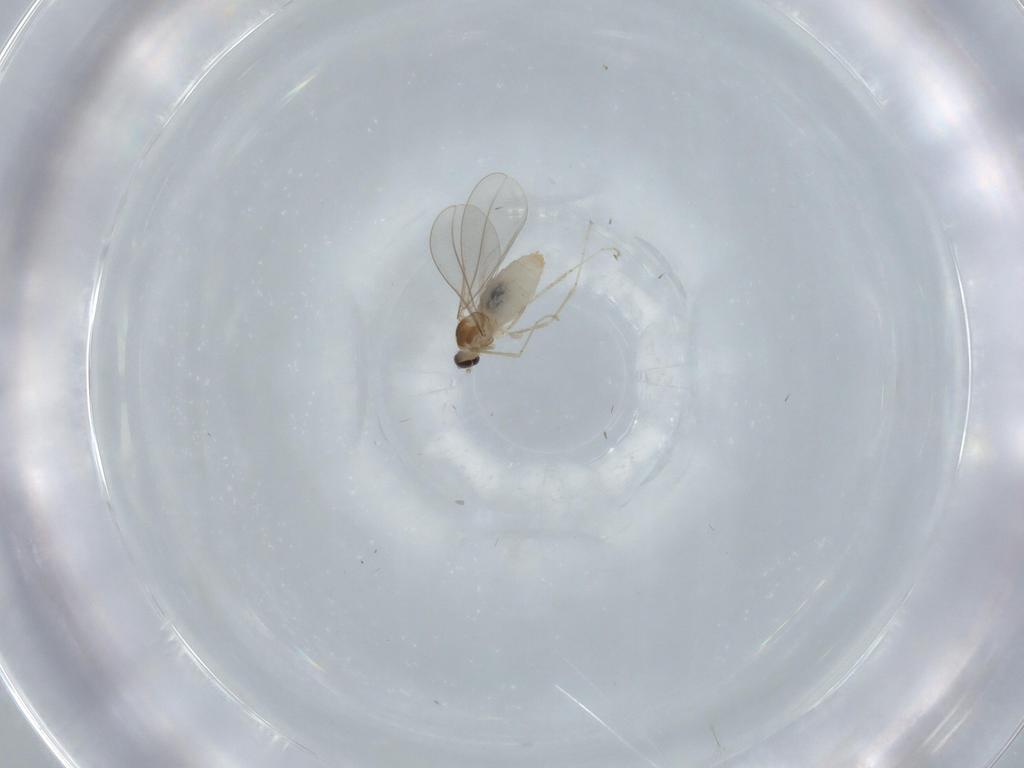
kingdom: Animalia
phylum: Arthropoda
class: Insecta
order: Diptera
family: Cecidomyiidae
